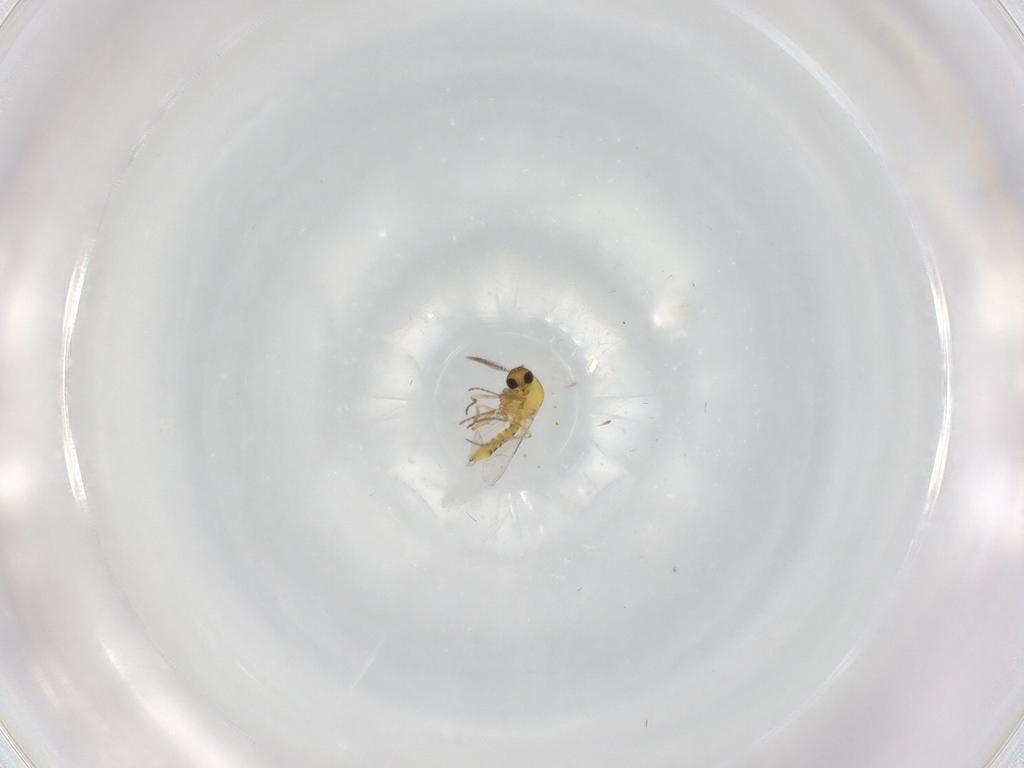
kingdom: Animalia
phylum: Arthropoda
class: Insecta
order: Diptera
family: Ceratopogonidae
